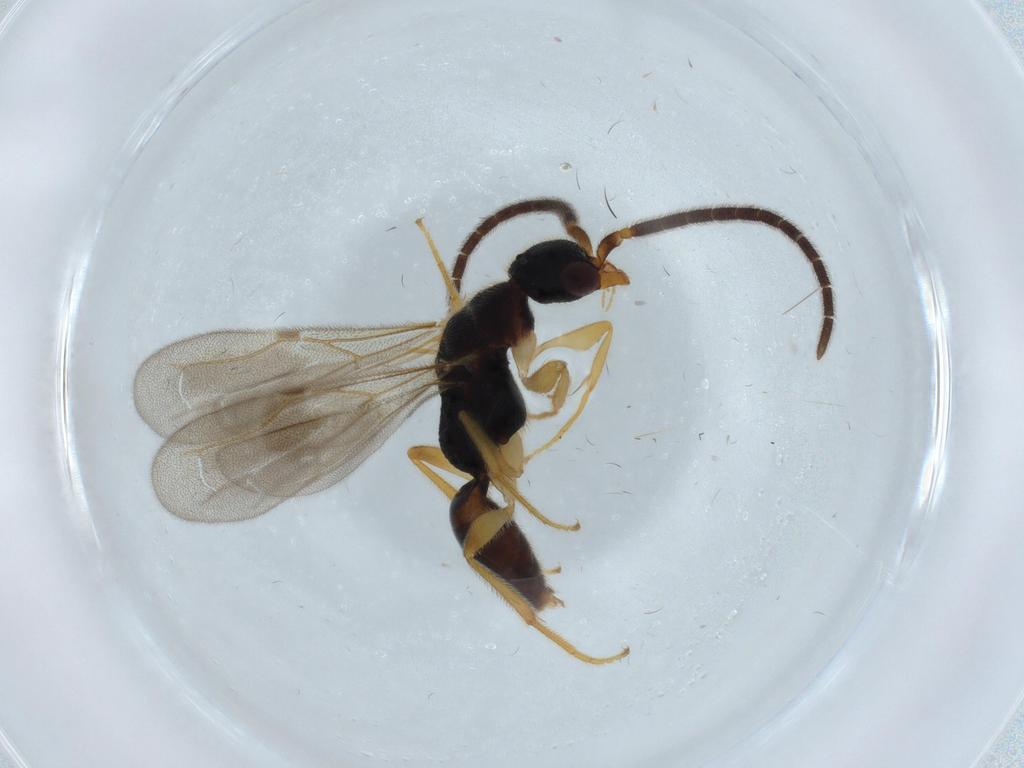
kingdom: Animalia
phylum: Arthropoda
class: Insecta
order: Hymenoptera
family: Bethylidae
